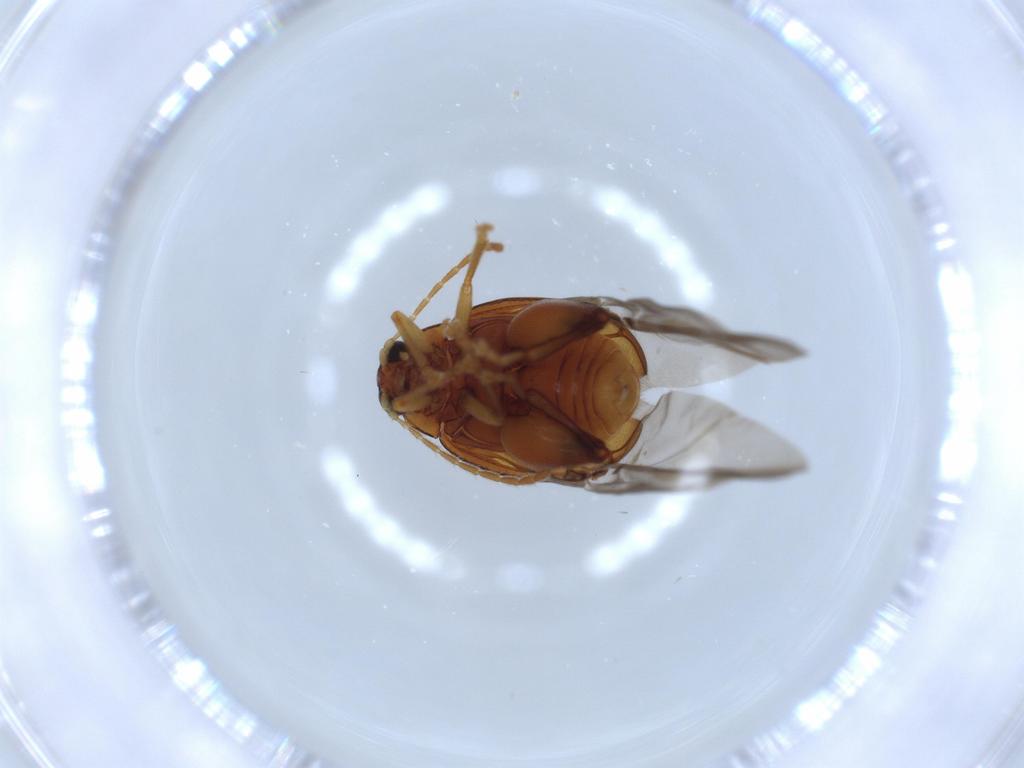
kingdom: Animalia
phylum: Arthropoda
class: Insecta
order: Coleoptera
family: Chrysomelidae
